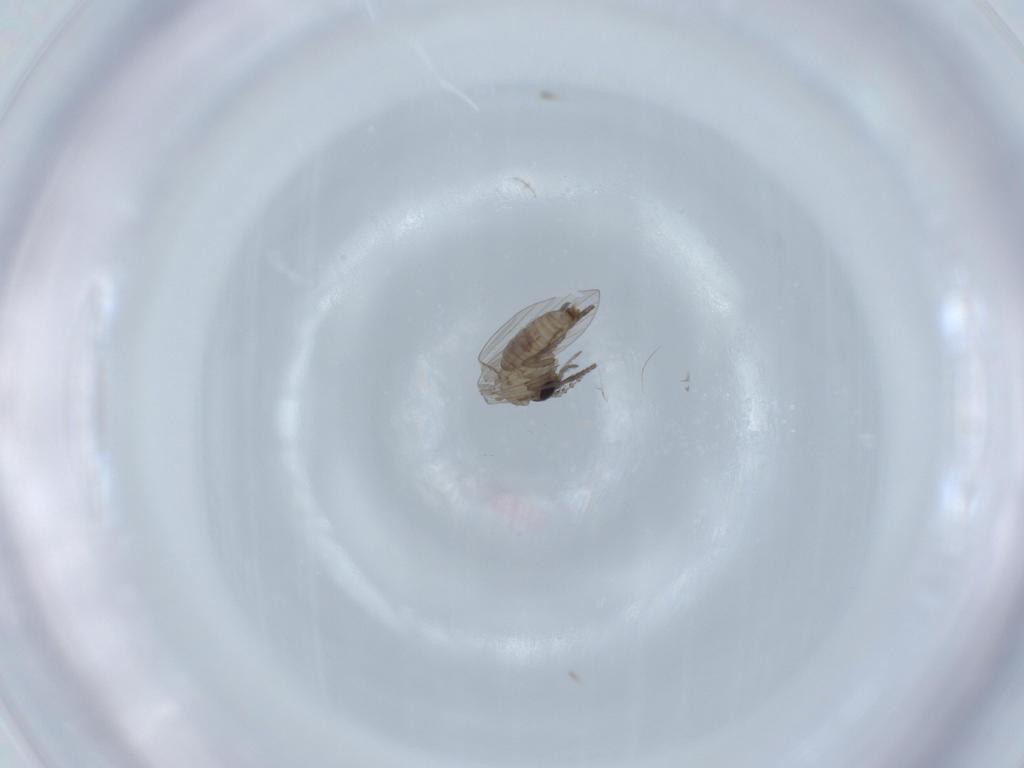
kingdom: Animalia
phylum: Arthropoda
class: Insecta
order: Diptera
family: Psychodidae
